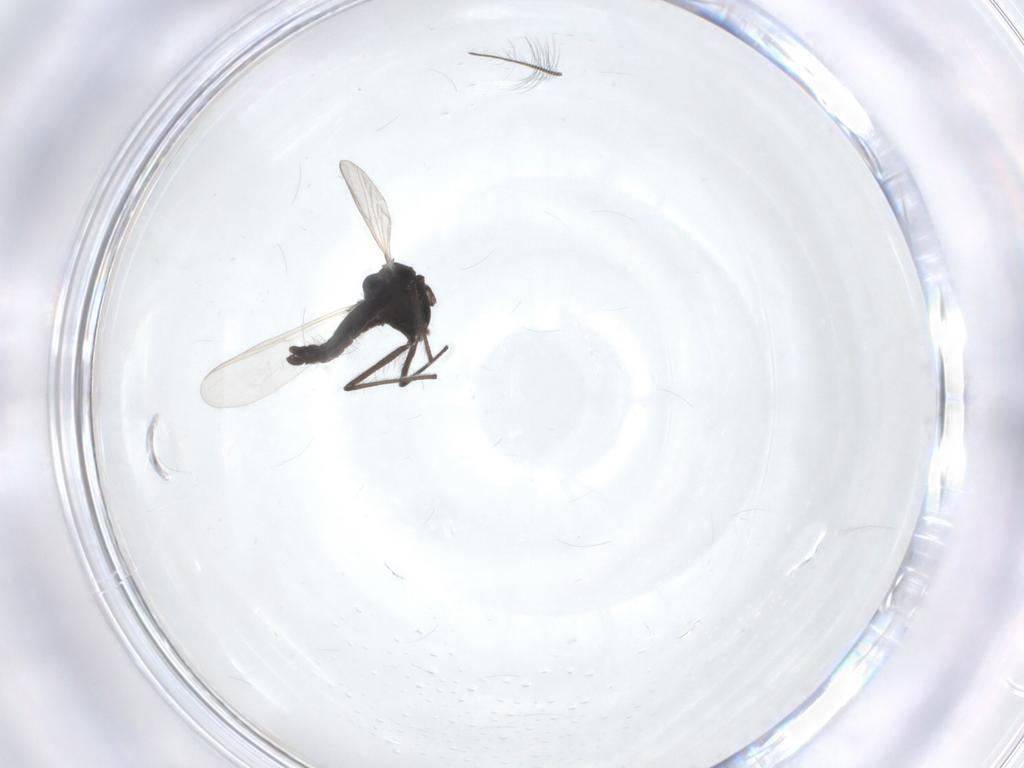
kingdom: Animalia
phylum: Arthropoda
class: Insecta
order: Diptera
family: Chironomidae
